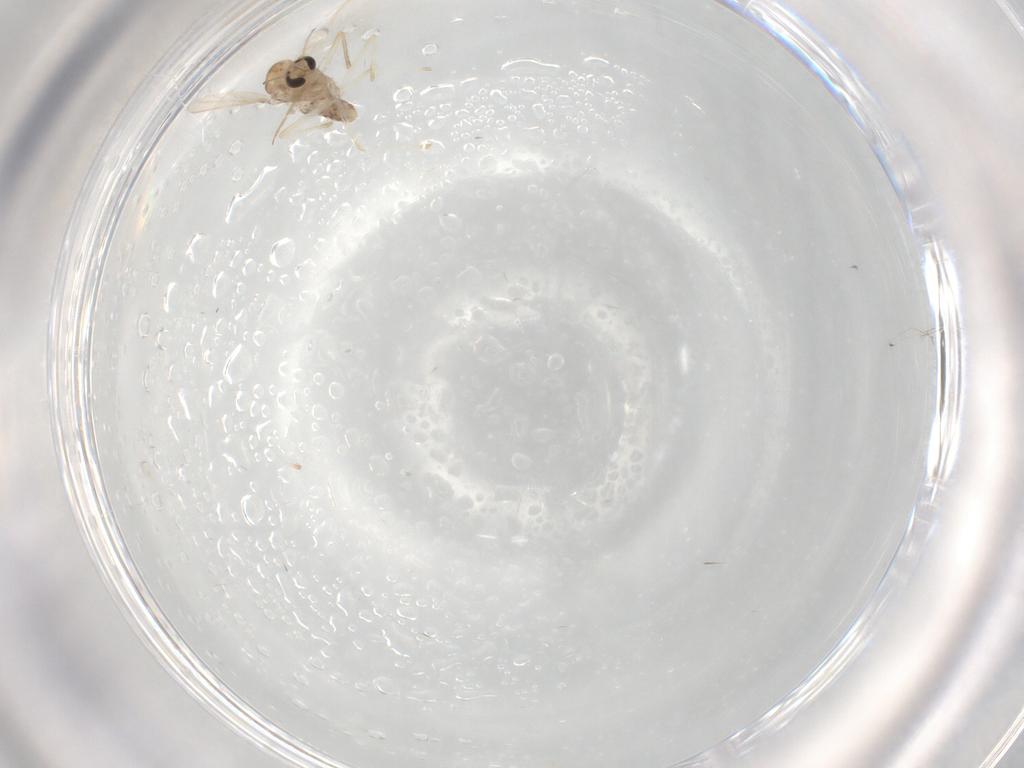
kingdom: Animalia
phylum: Arthropoda
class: Insecta
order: Diptera
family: Chironomidae
